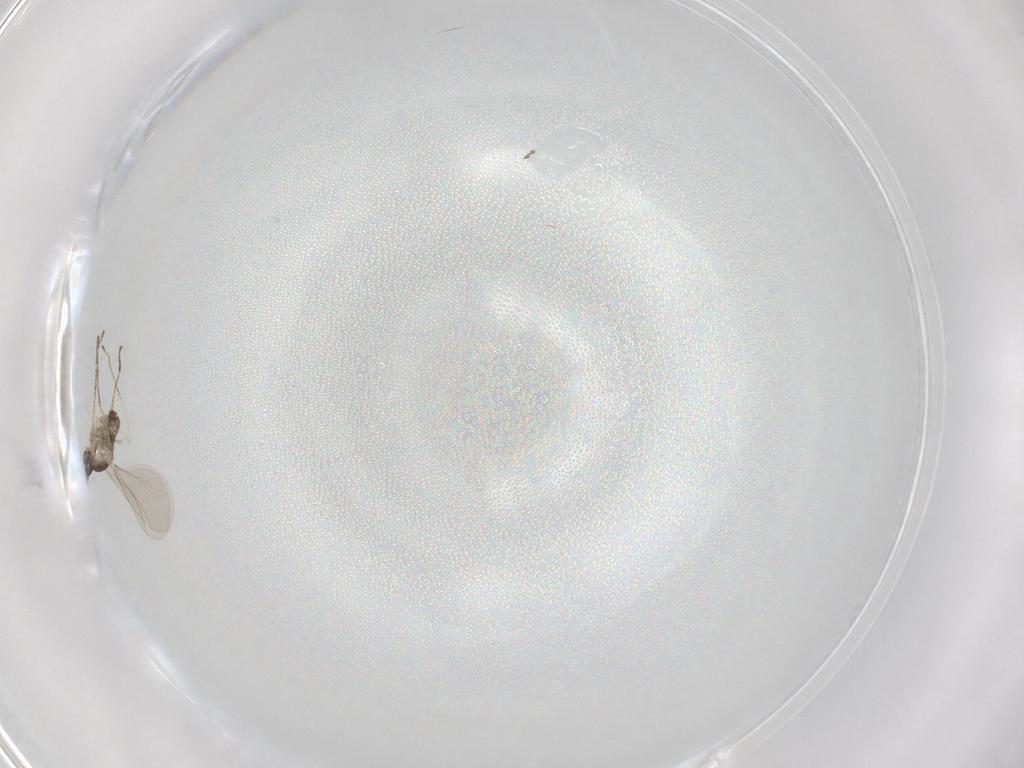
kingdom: Animalia
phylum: Arthropoda
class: Insecta
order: Diptera
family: Cecidomyiidae
